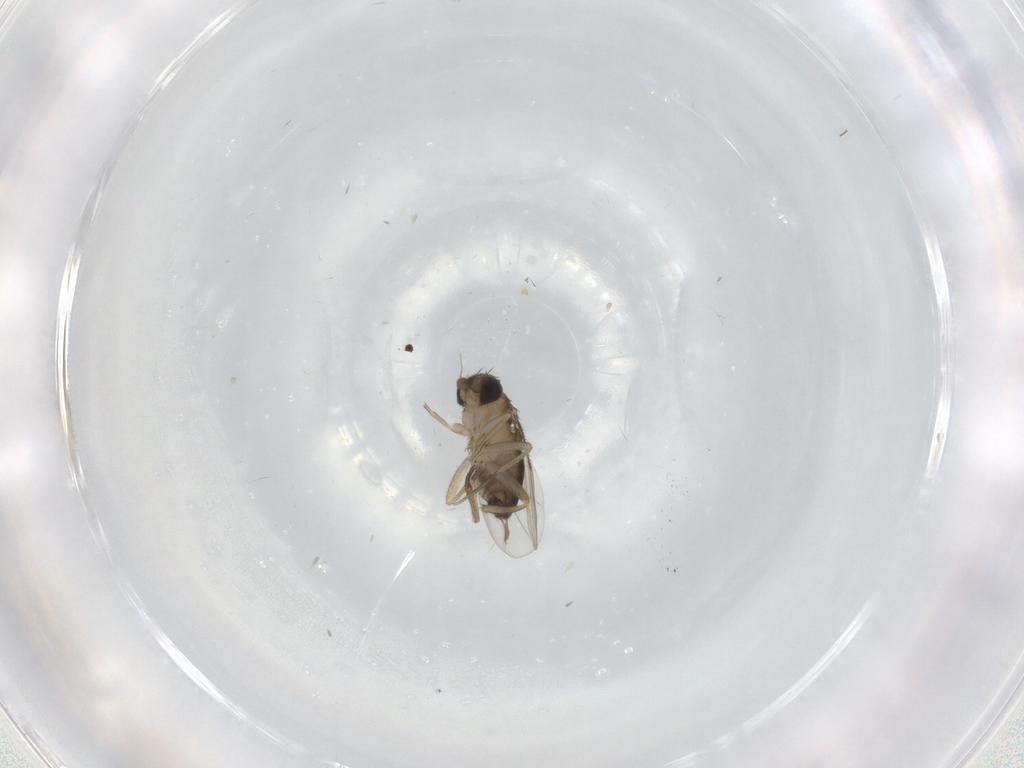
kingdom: Animalia
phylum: Arthropoda
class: Insecta
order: Diptera
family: Phoridae
